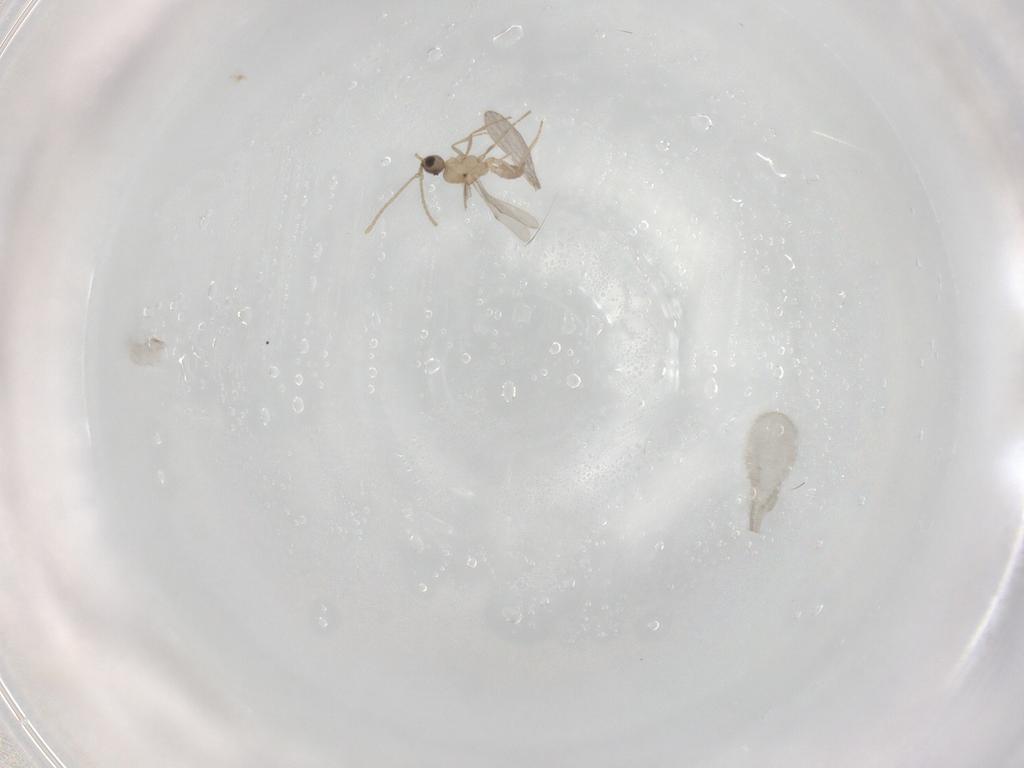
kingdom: Animalia
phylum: Arthropoda
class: Insecta
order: Hymenoptera
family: Formicidae
